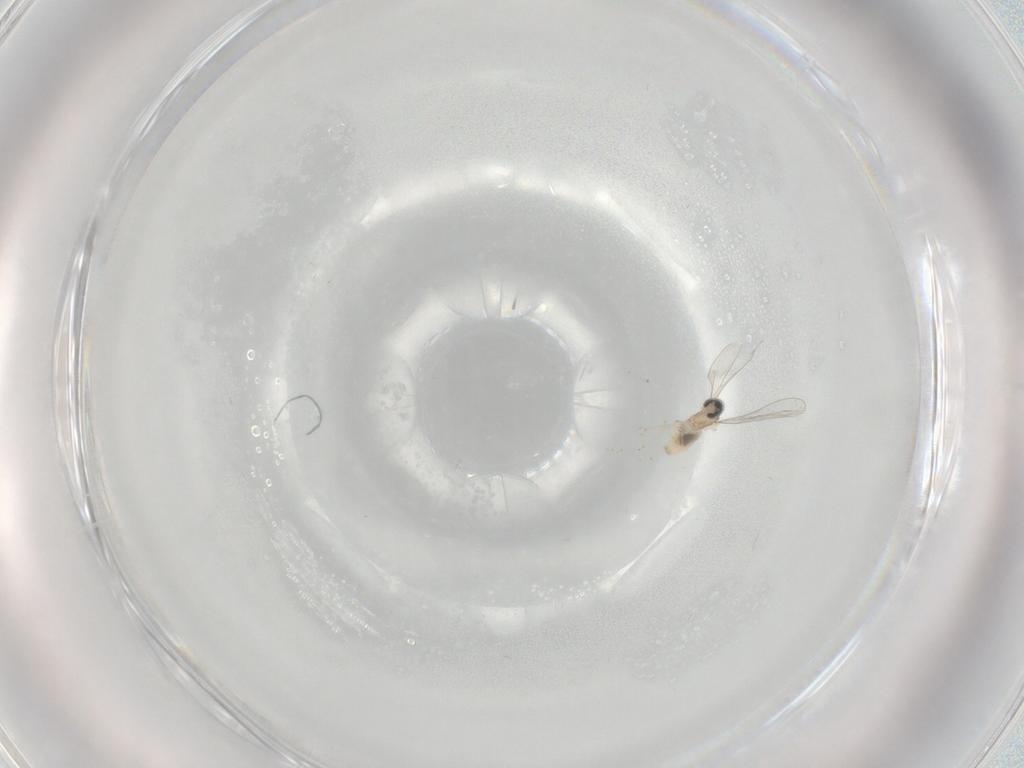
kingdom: Animalia
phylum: Arthropoda
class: Insecta
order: Diptera
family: Cecidomyiidae
